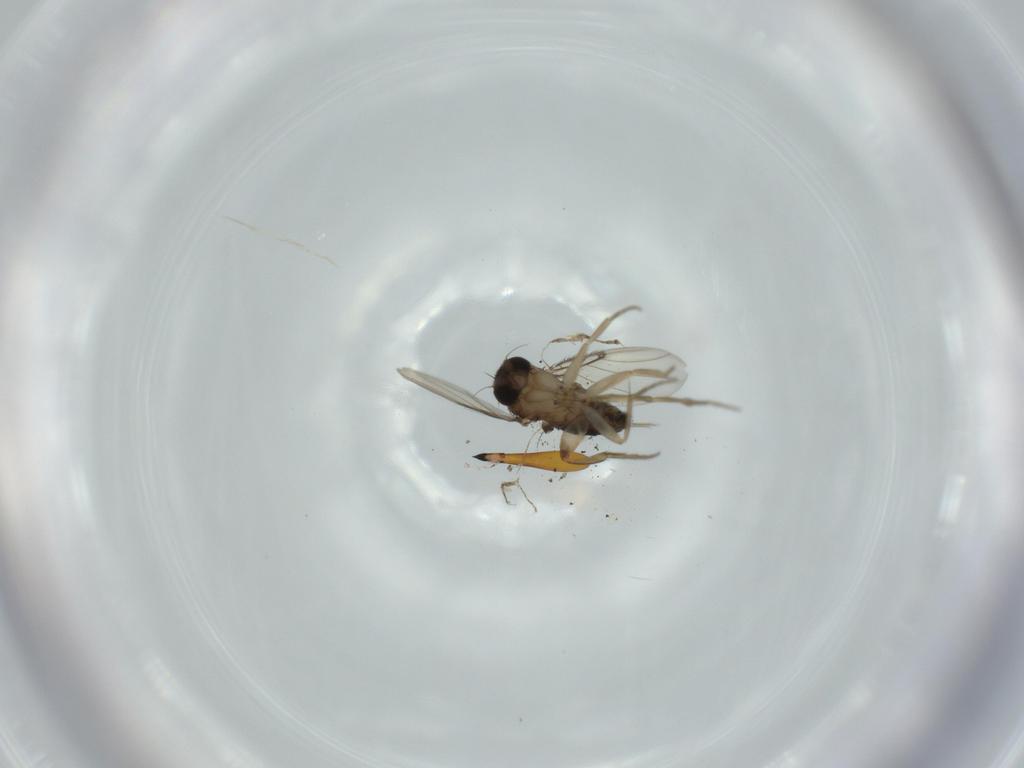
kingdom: Animalia
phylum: Arthropoda
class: Insecta
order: Diptera
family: Phoridae
